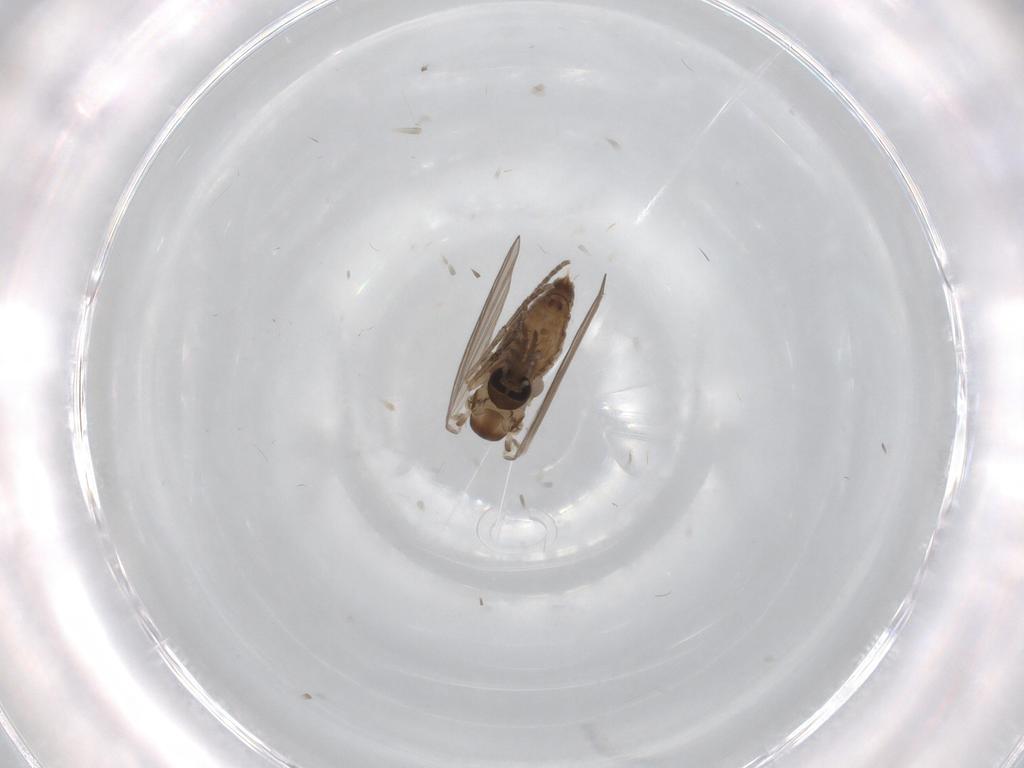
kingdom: Animalia
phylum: Arthropoda
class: Insecta
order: Diptera
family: Psychodidae
